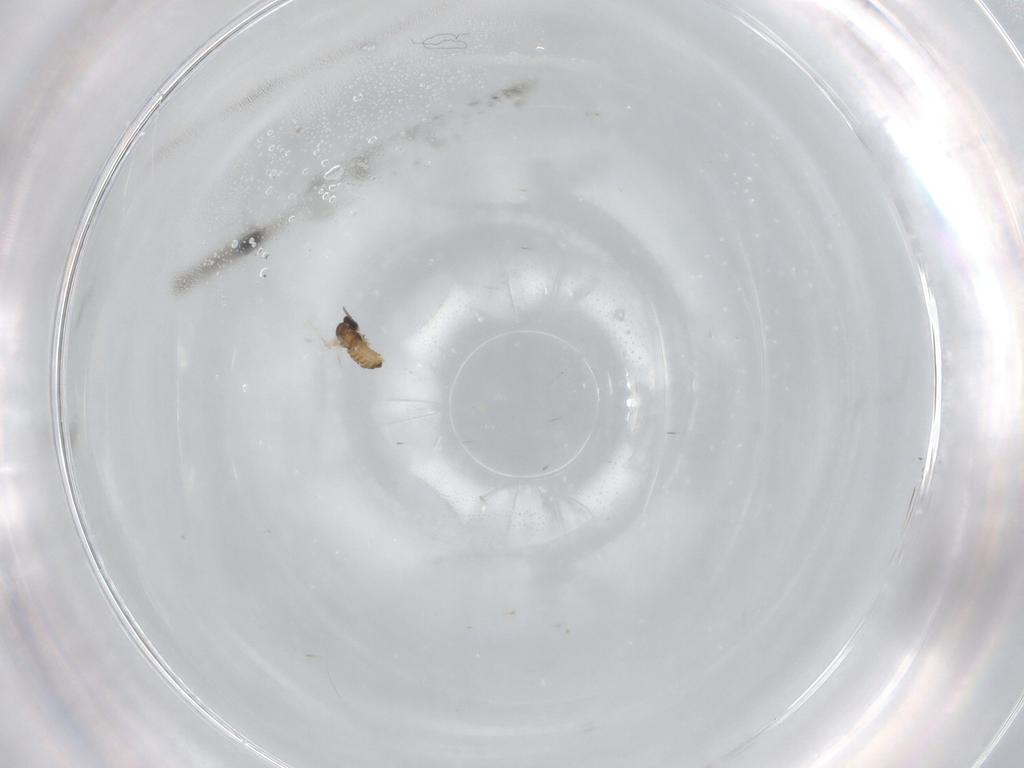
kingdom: Animalia
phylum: Arthropoda
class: Insecta
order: Diptera
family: Cecidomyiidae
